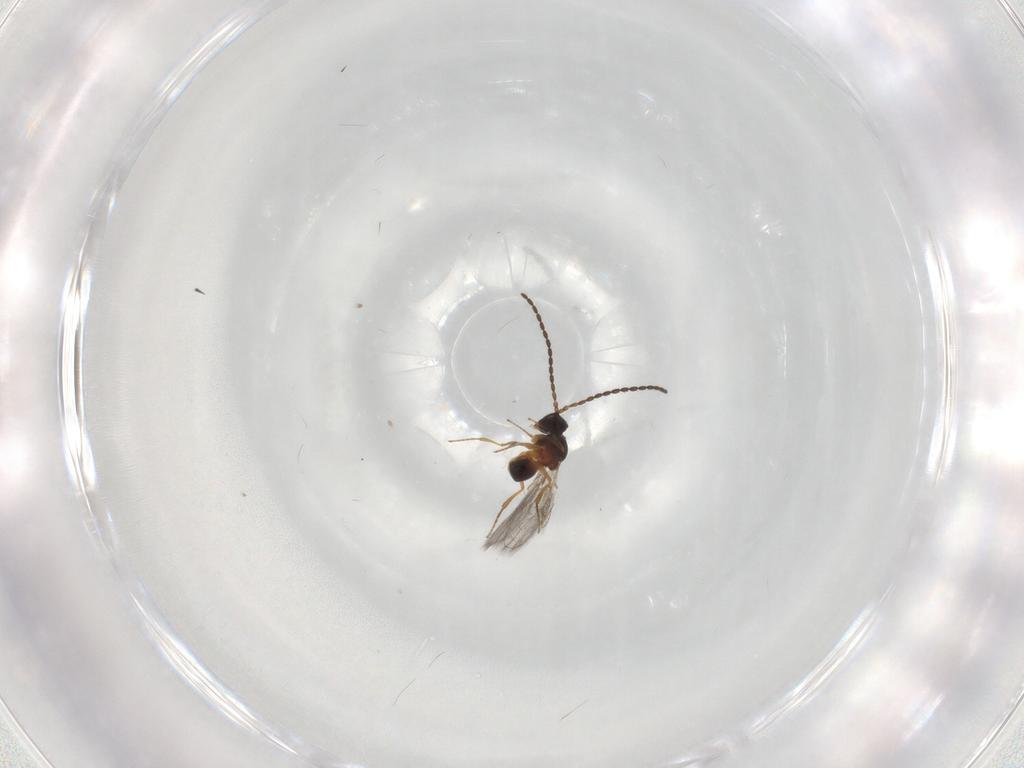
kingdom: Animalia
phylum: Arthropoda
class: Insecta
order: Hymenoptera
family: Figitidae
